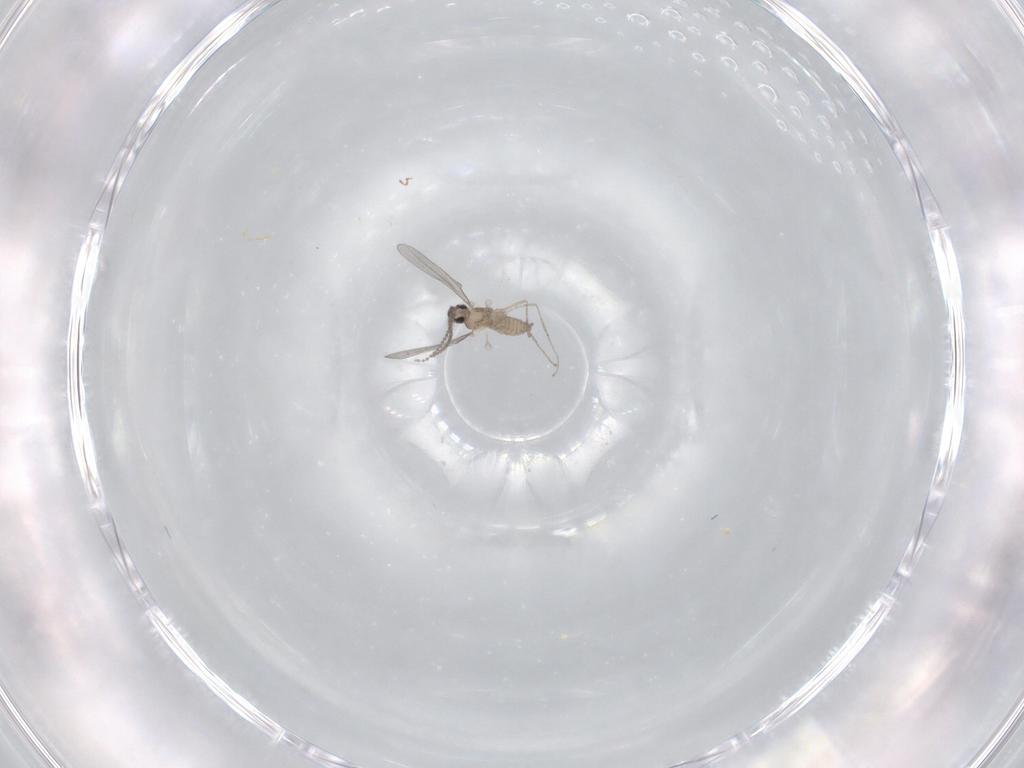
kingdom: Animalia
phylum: Arthropoda
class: Insecta
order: Diptera
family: Cecidomyiidae
